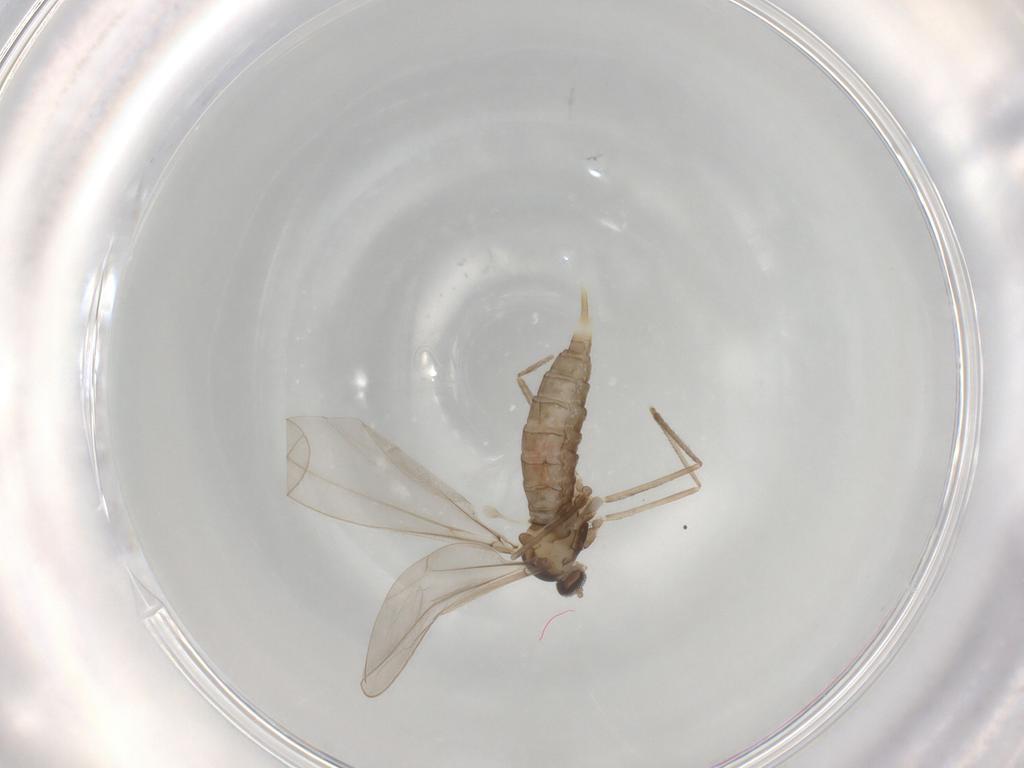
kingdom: Animalia
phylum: Arthropoda
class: Insecta
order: Diptera
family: Cecidomyiidae
